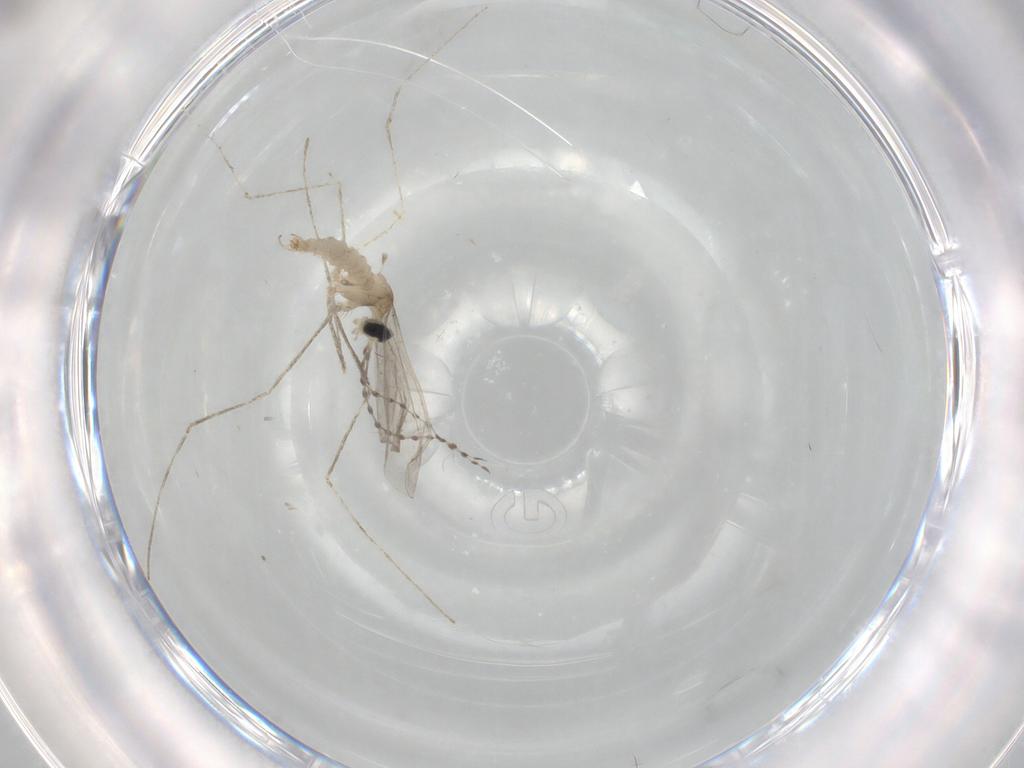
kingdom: Animalia
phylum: Arthropoda
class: Insecta
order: Diptera
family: Cecidomyiidae
